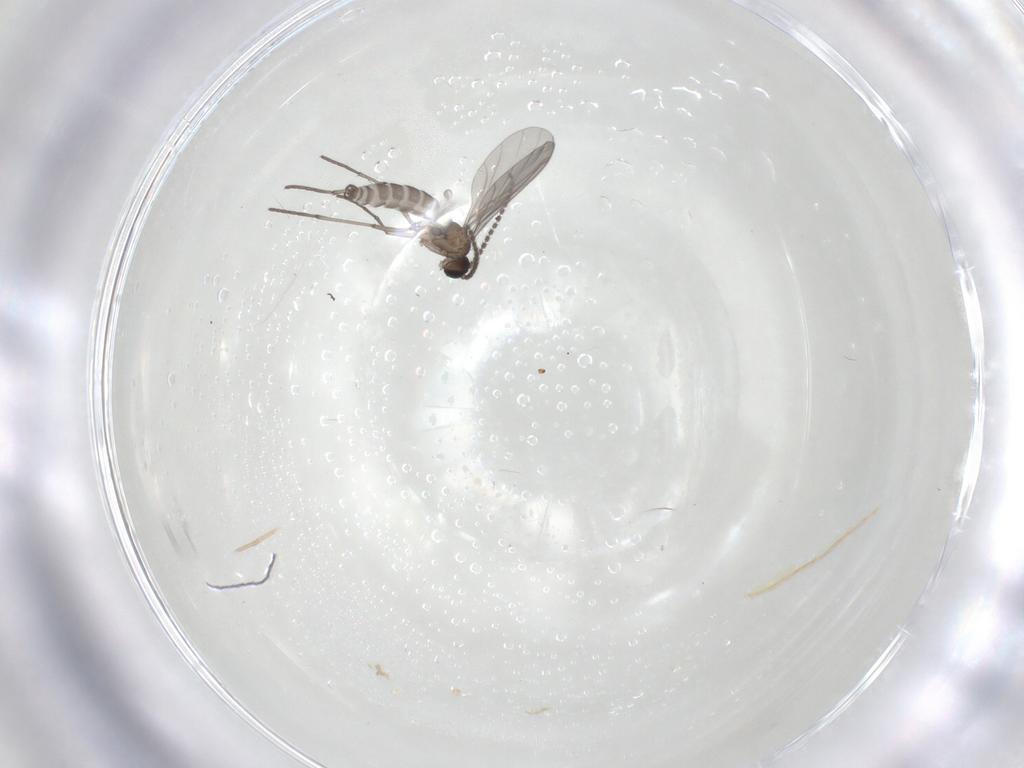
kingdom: Animalia
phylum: Arthropoda
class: Insecta
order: Diptera
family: Sciaridae
